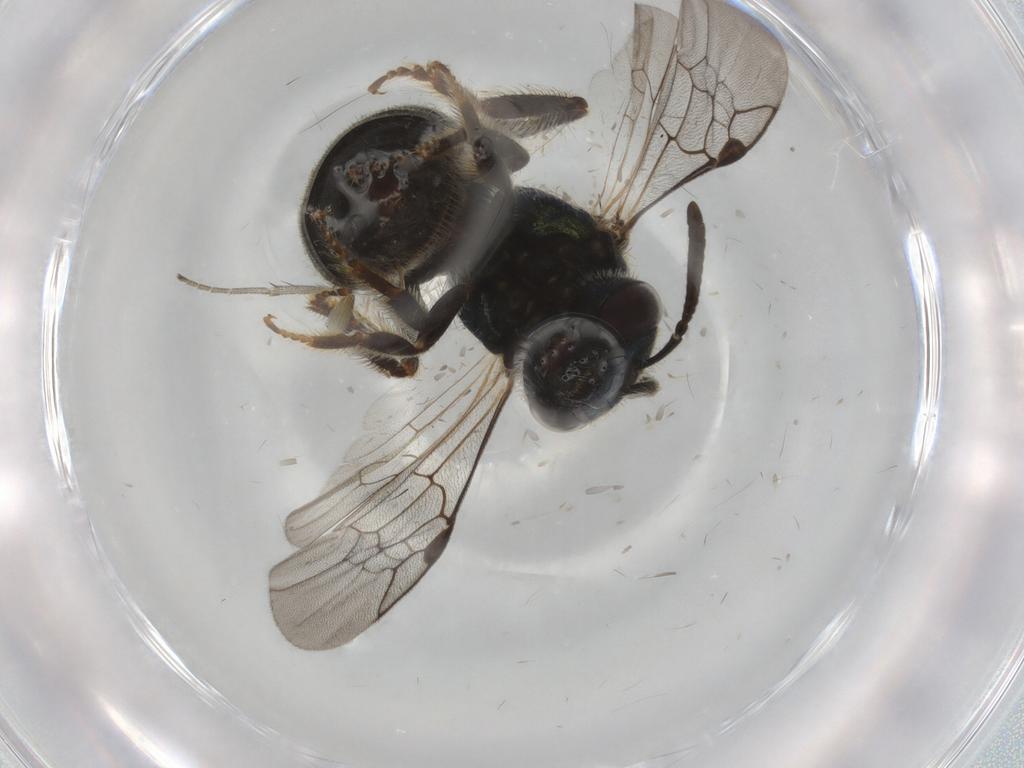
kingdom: Animalia
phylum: Arthropoda
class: Insecta
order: Hymenoptera
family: Halictidae
